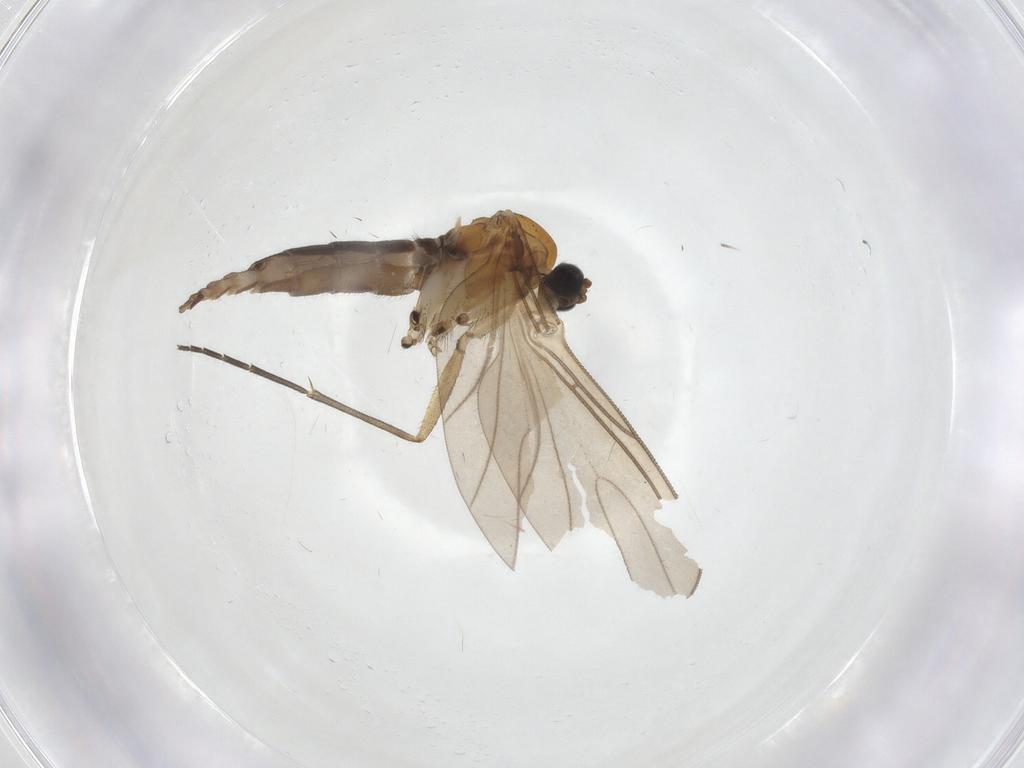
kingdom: Animalia
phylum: Arthropoda
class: Insecta
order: Diptera
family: Sciaridae
